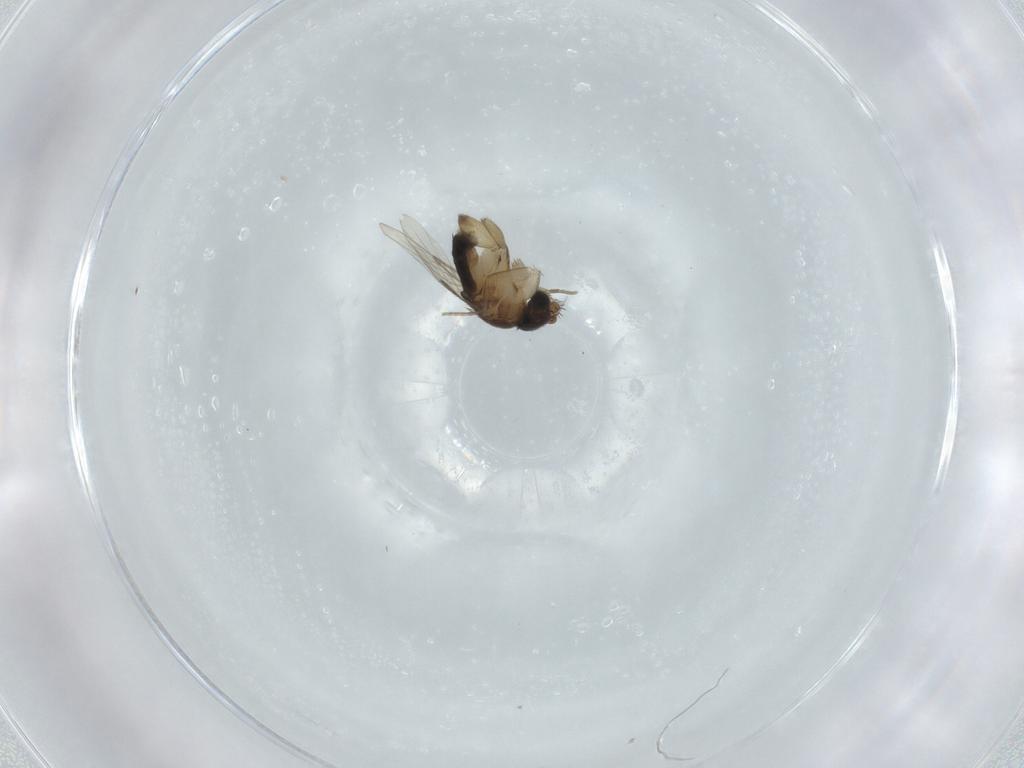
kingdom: Animalia
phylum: Arthropoda
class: Insecta
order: Diptera
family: Phoridae
